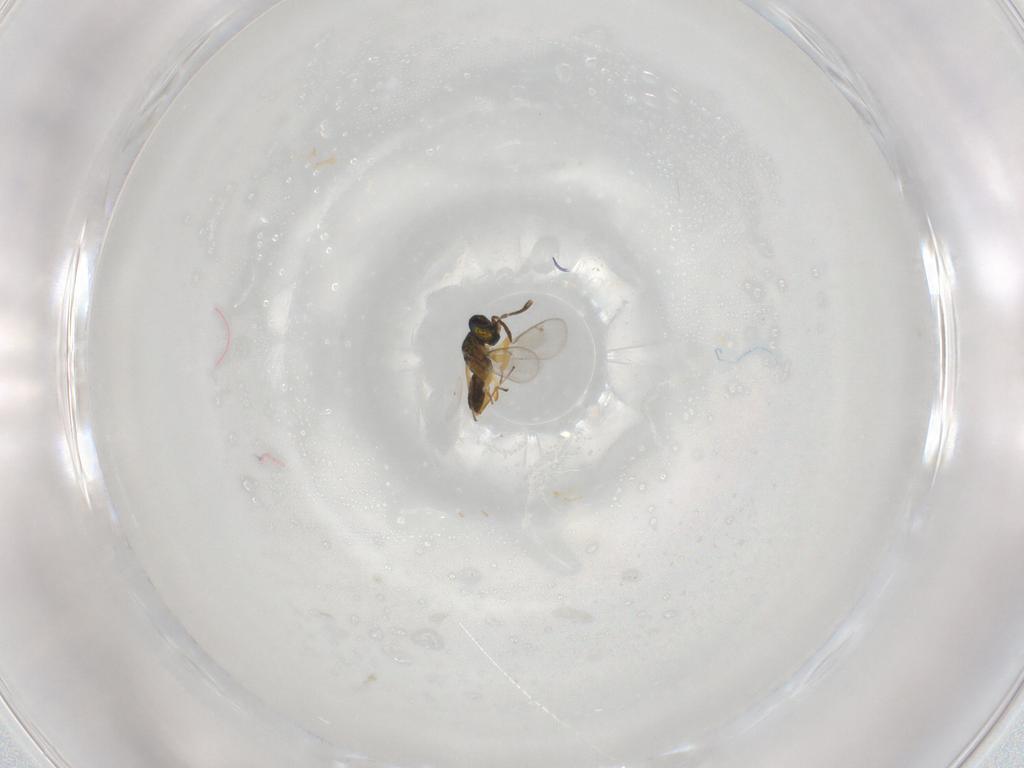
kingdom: Animalia
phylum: Arthropoda
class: Insecta
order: Hymenoptera
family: Eupelmidae
